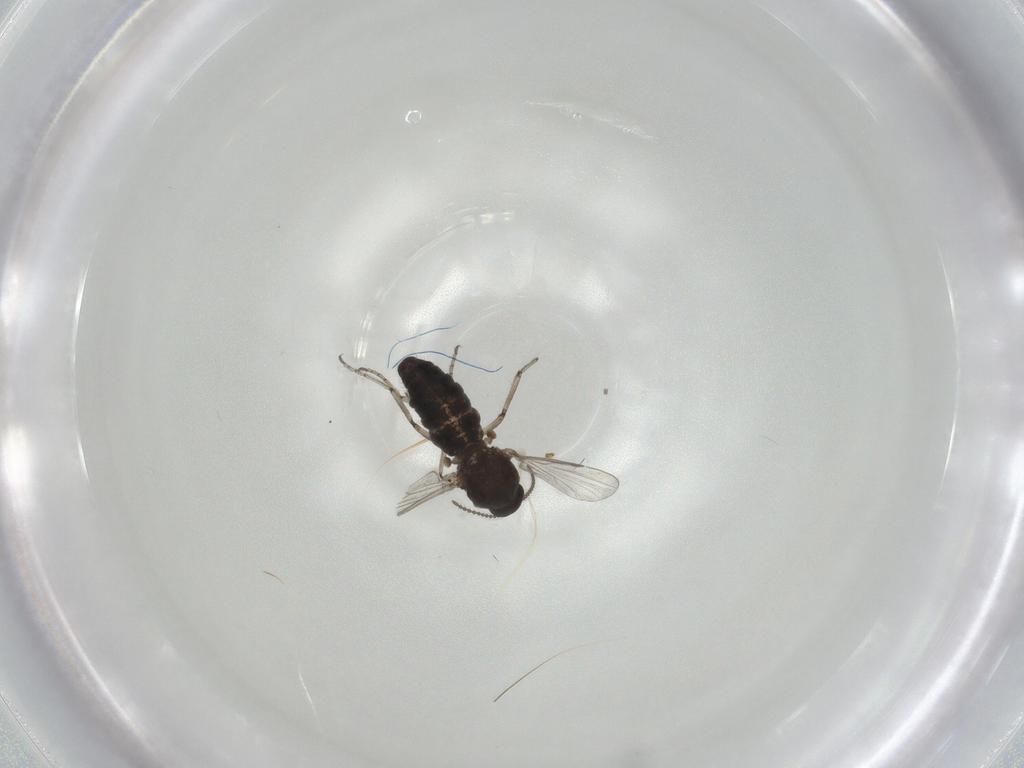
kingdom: Animalia
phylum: Arthropoda
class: Insecta
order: Diptera
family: Ceratopogonidae
